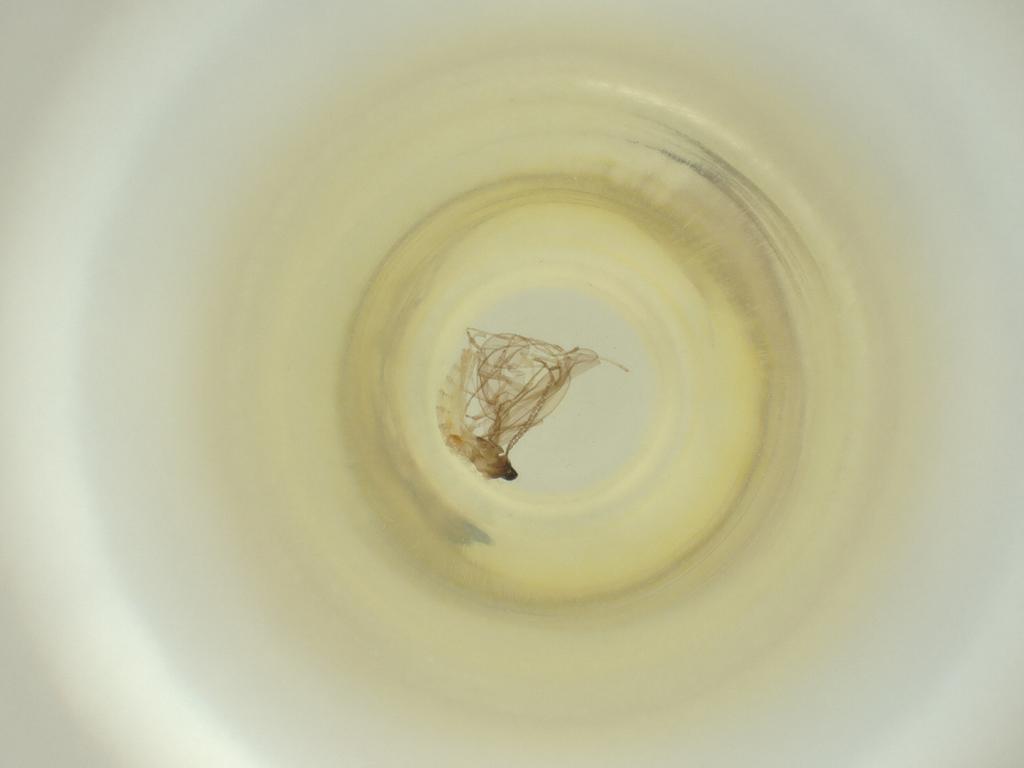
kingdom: Animalia
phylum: Arthropoda
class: Insecta
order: Diptera
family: Cecidomyiidae
